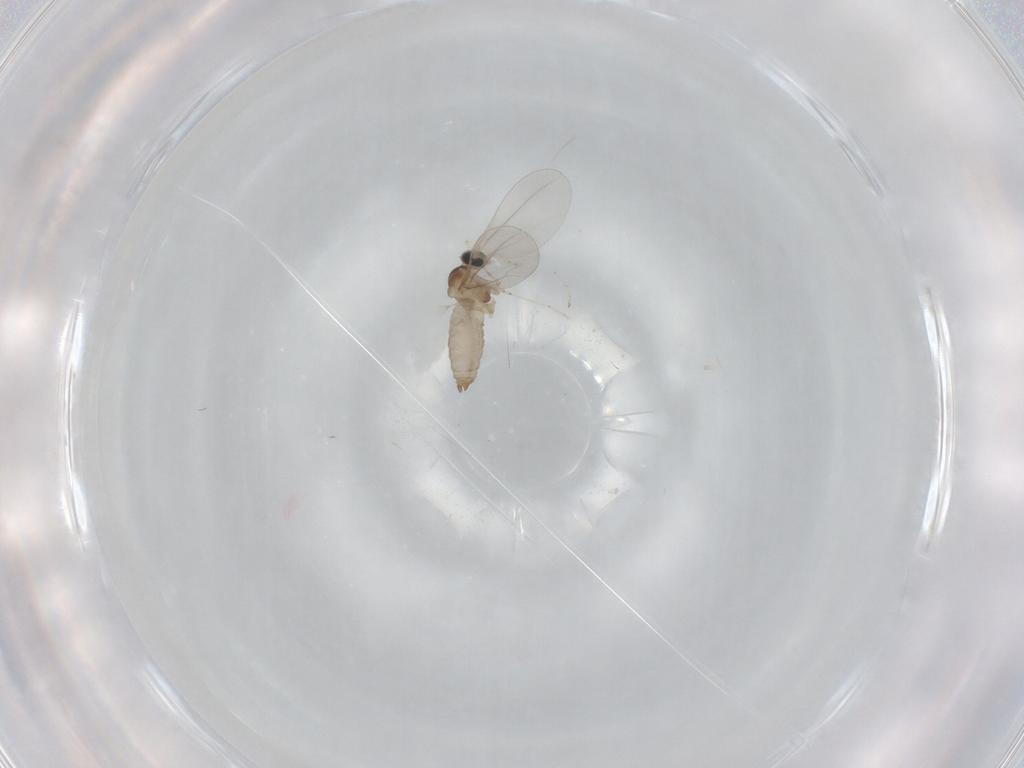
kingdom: Animalia
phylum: Arthropoda
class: Insecta
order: Diptera
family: Cecidomyiidae
